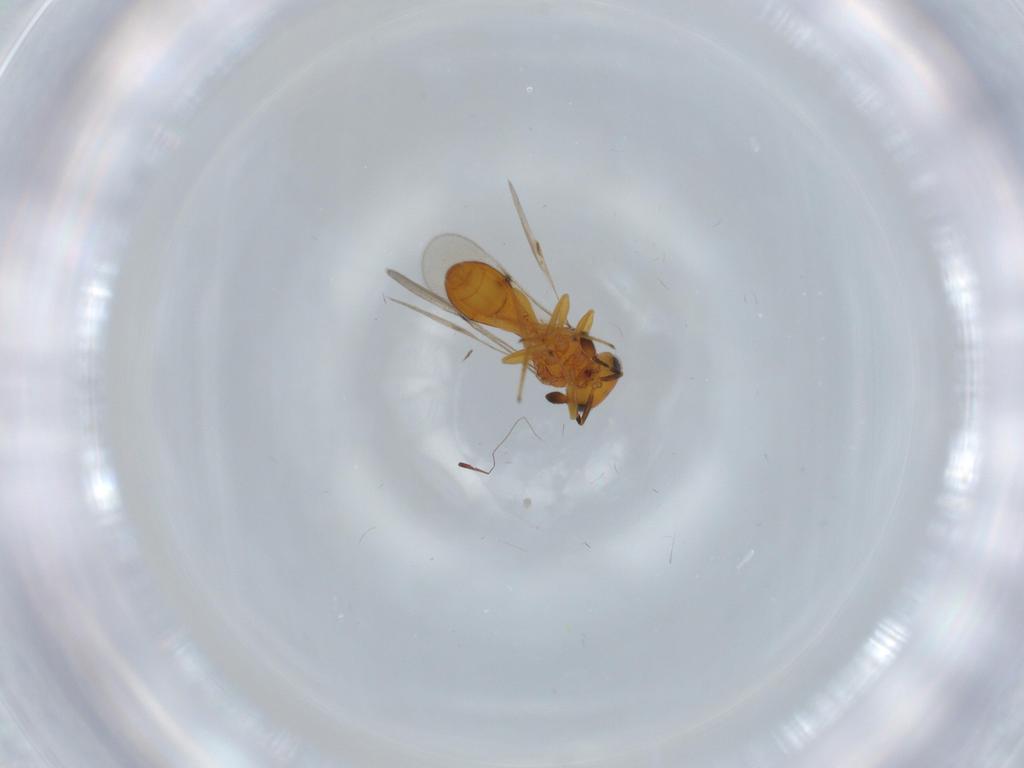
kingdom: Animalia
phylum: Arthropoda
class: Insecta
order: Hymenoptera
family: Scelionidae
